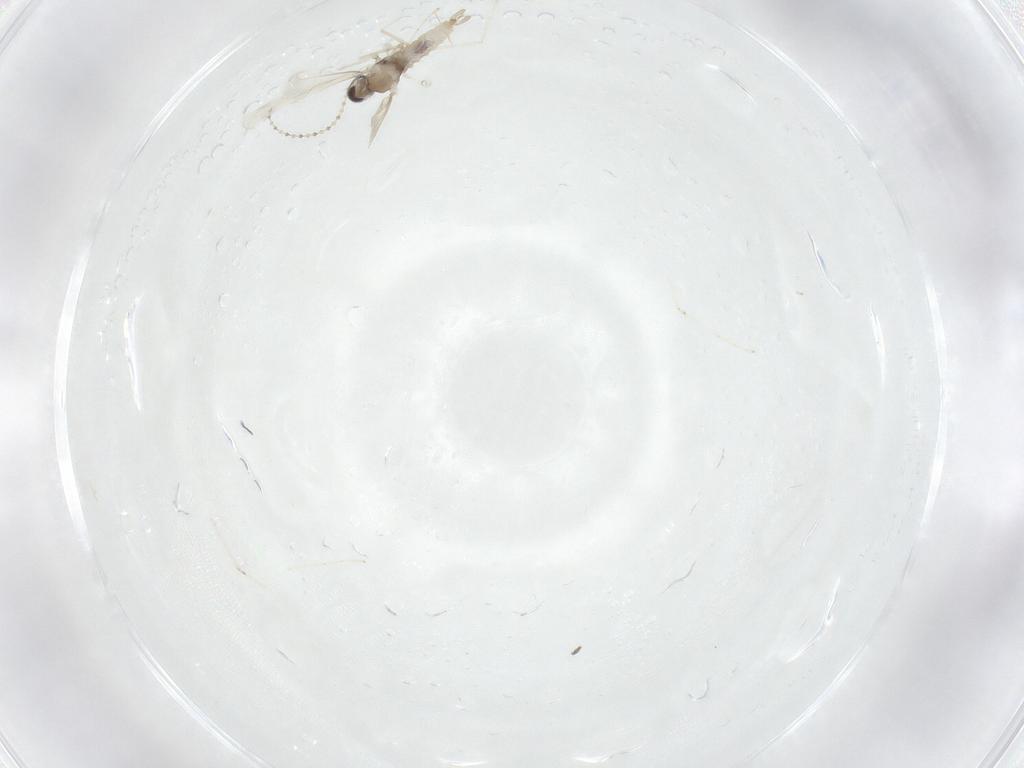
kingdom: Animalia
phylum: Arthropoda
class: Insecta
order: Diptera
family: Cecidomyiidae
